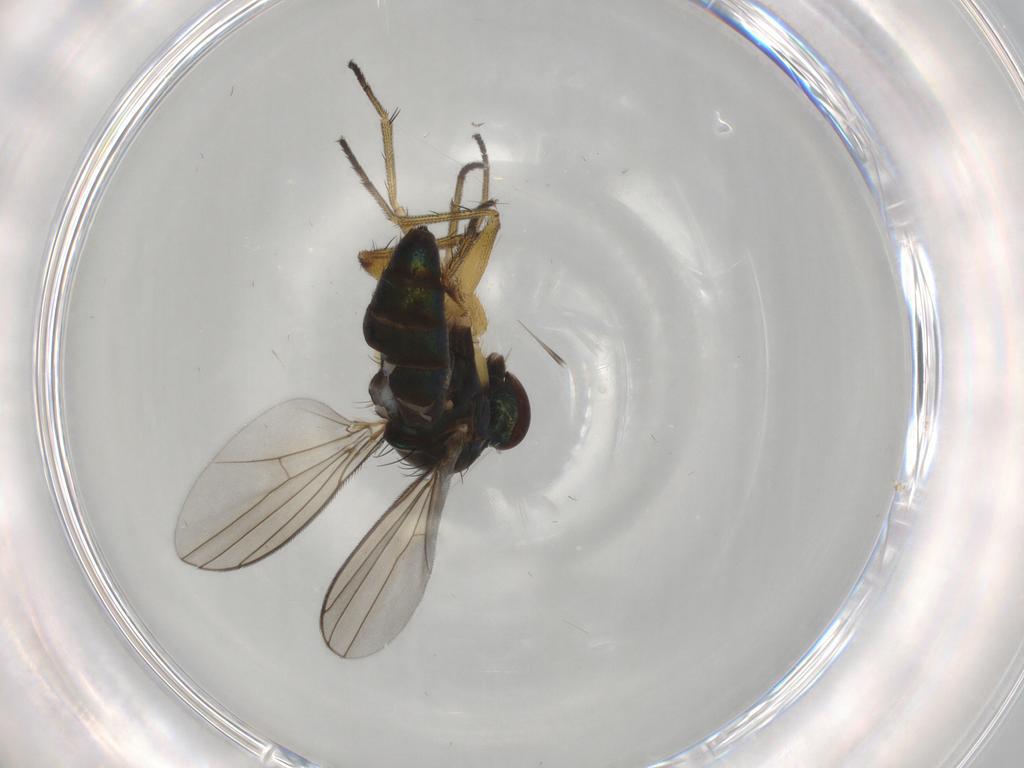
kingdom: Animalia
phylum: Arthropoda
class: Insecta
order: Diptera
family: Dolichopodidae
